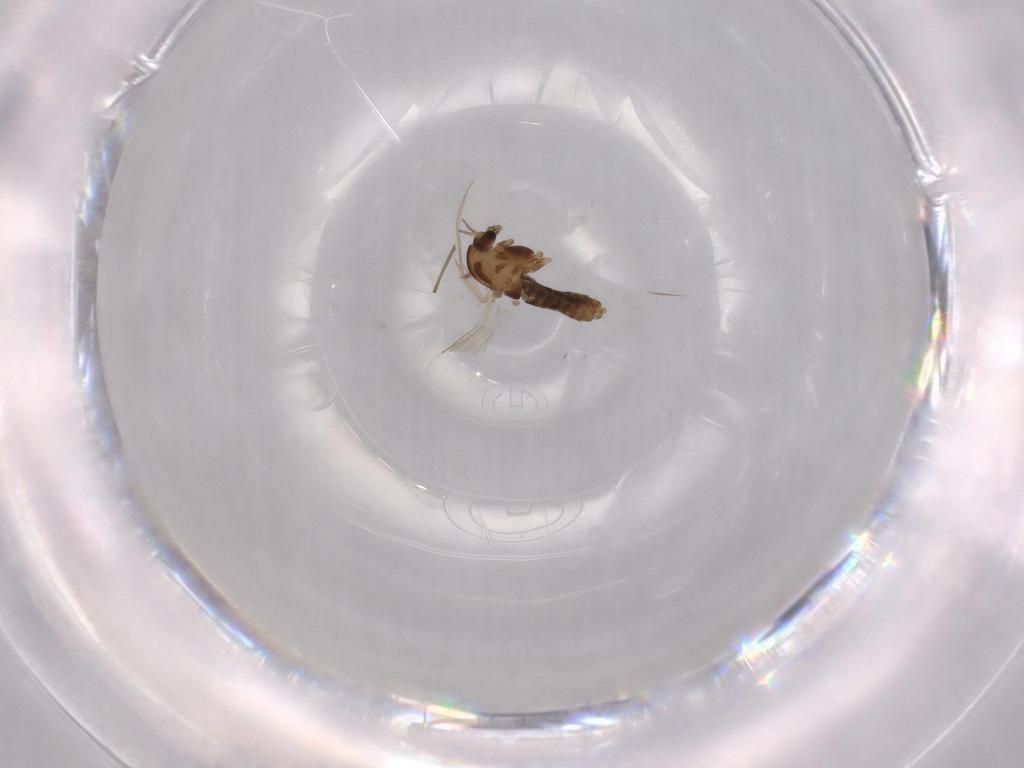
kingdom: Animalia
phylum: Arthropoda
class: Insecta
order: Diptera
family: Chironomidae
